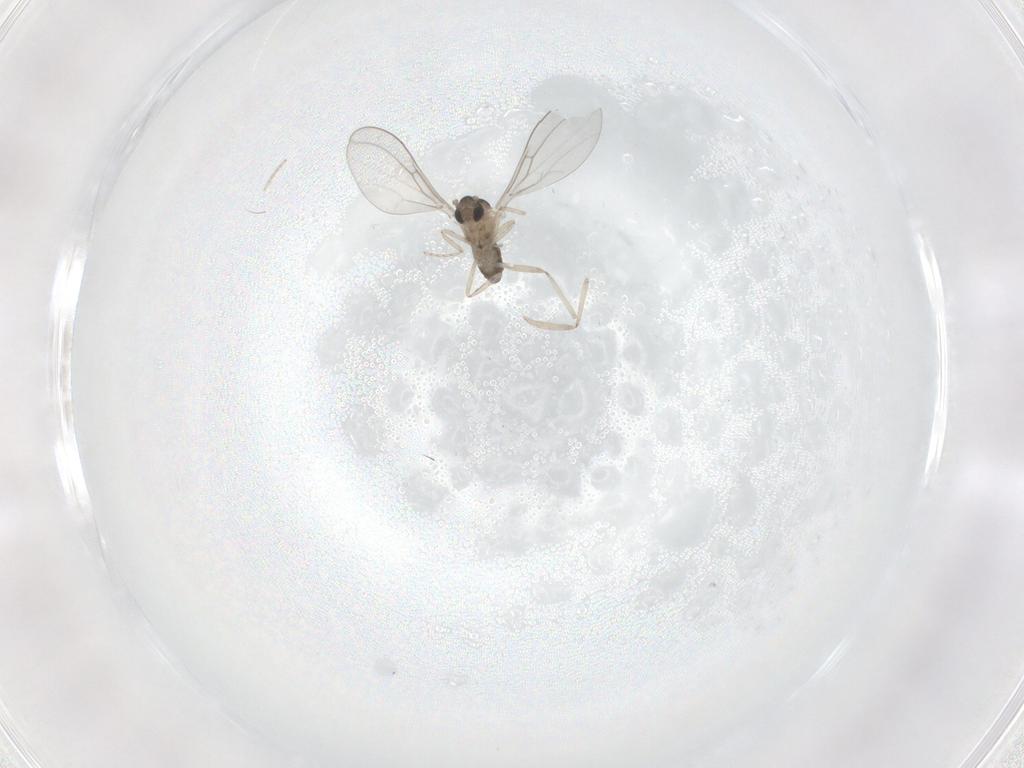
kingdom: Animalia
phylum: Arthropoda
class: Insecta
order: Diptera
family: Cecidomyiidae
